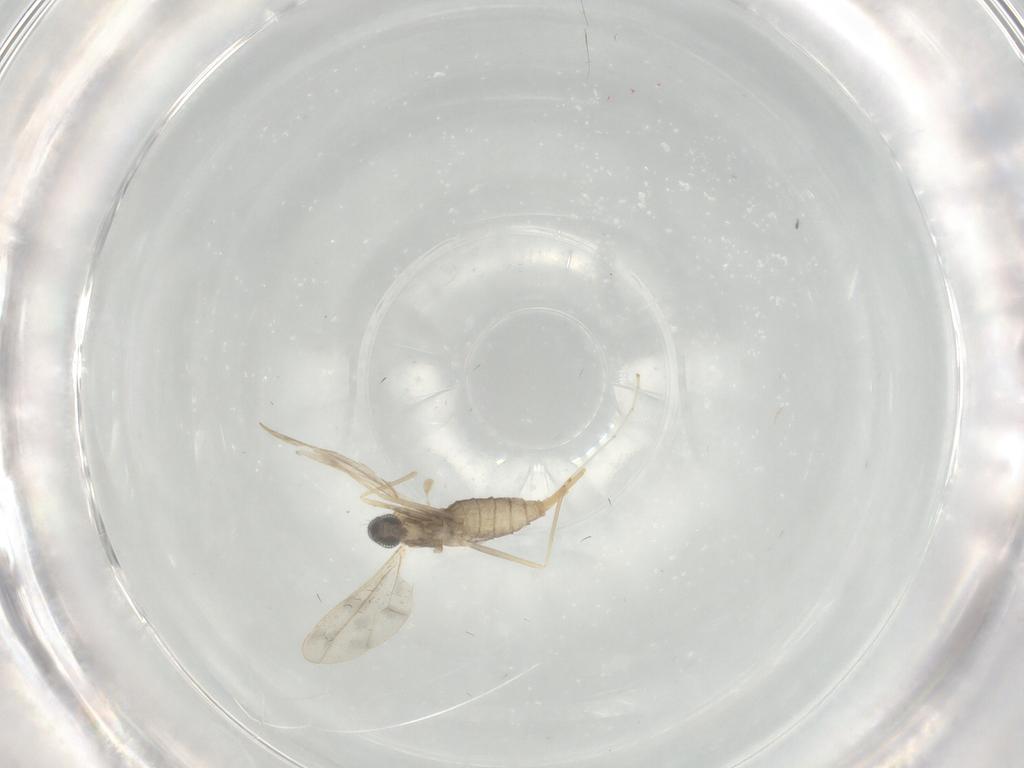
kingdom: Animalia
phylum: Arthropoda
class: Insecta
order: Diptera
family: Cecidomyiidae
